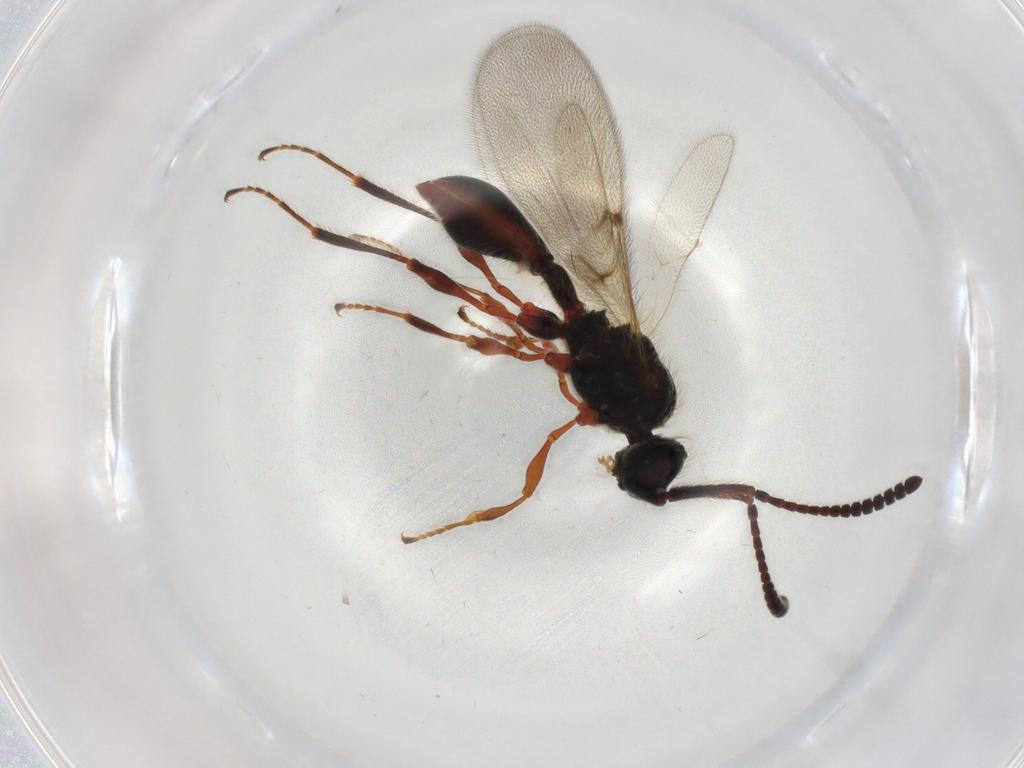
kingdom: Animalia
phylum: Arthropoda
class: Insecta
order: Hymenoptera
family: Diapriidae
